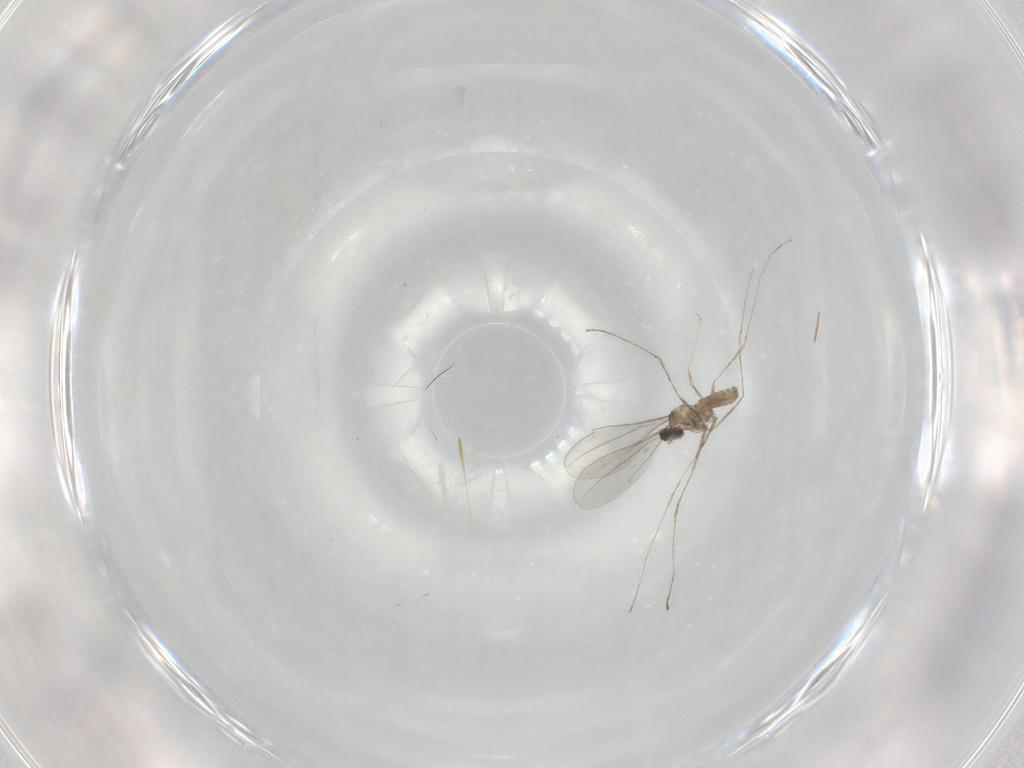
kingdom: Animalia
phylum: Arthropoda
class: Insecta
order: Diptera
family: Cecidomyiidae
